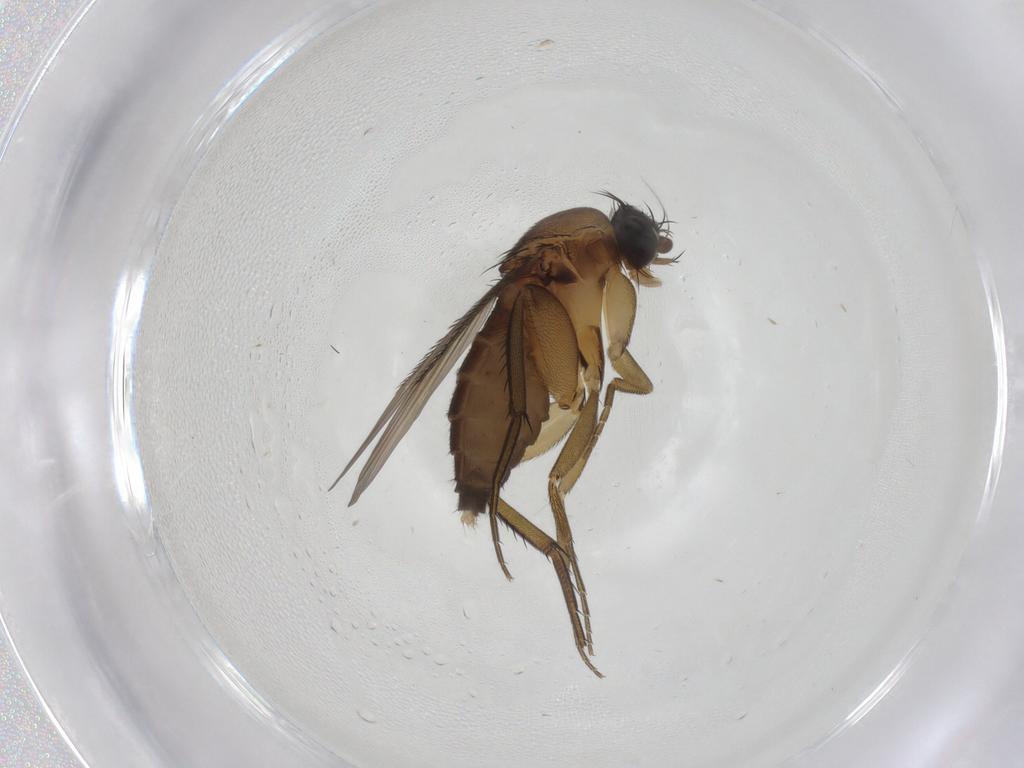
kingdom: Animalia
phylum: Arthropoda
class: Insecta
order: Diptera
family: Phoridae
